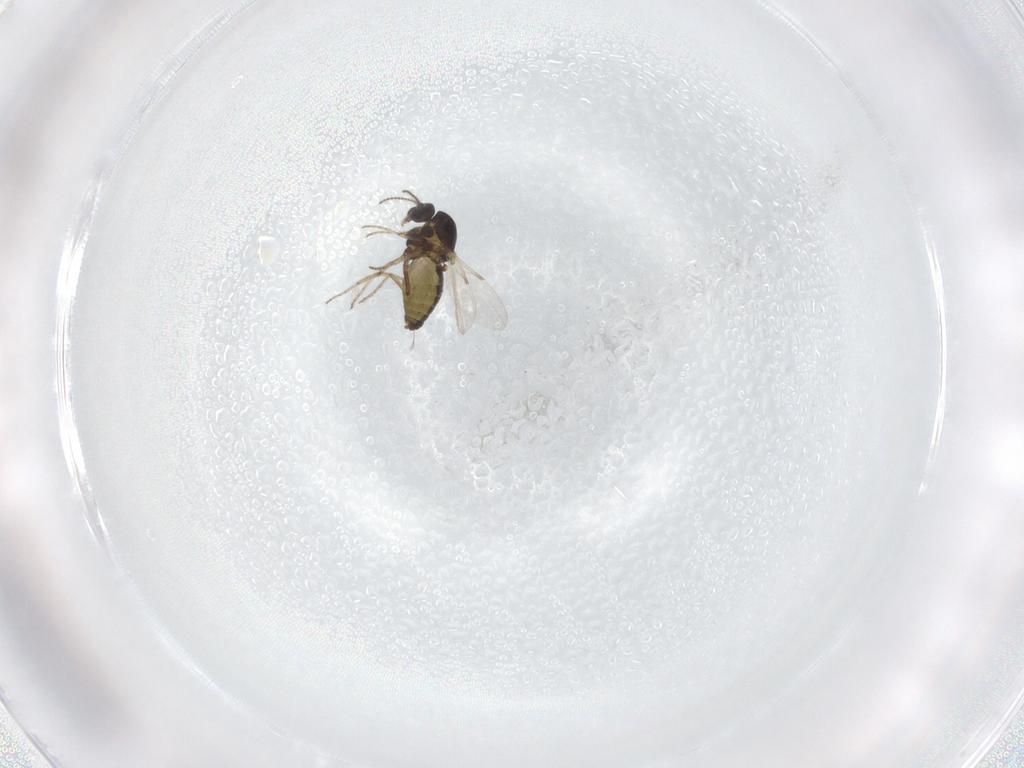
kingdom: Animalia
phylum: Arthropoda
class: Insecta
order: Diptera
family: Ceratopogonidae
